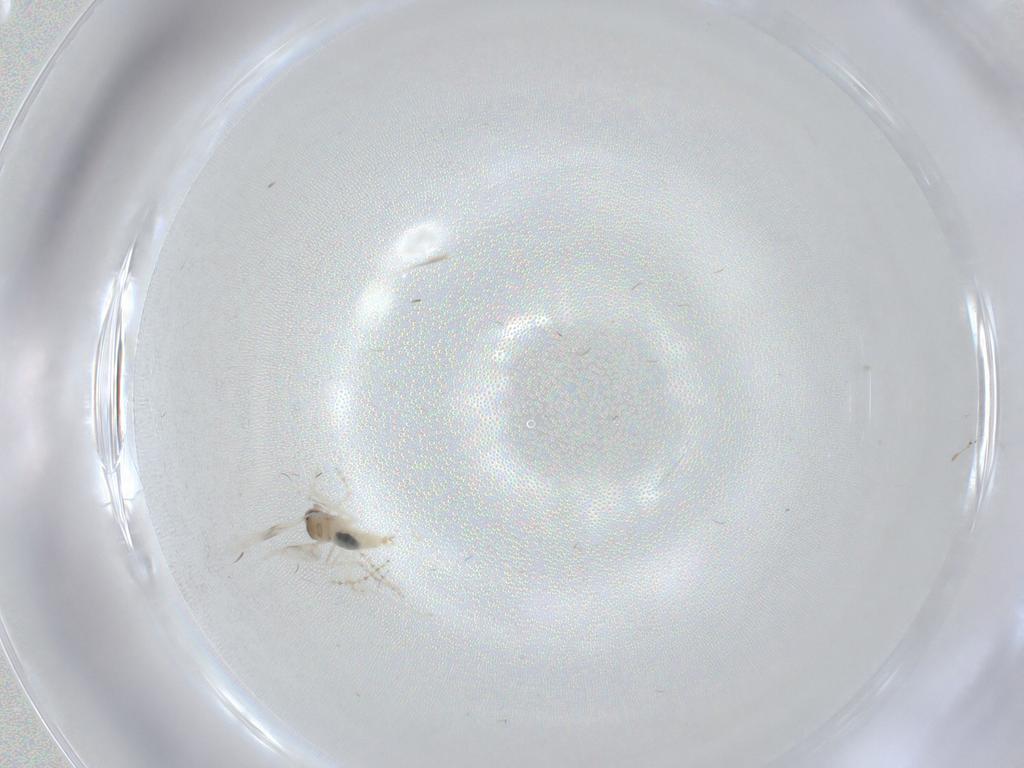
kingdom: Animalia
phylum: Arthropoda
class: Insecta
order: Diptera
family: Cecidomyiidae
